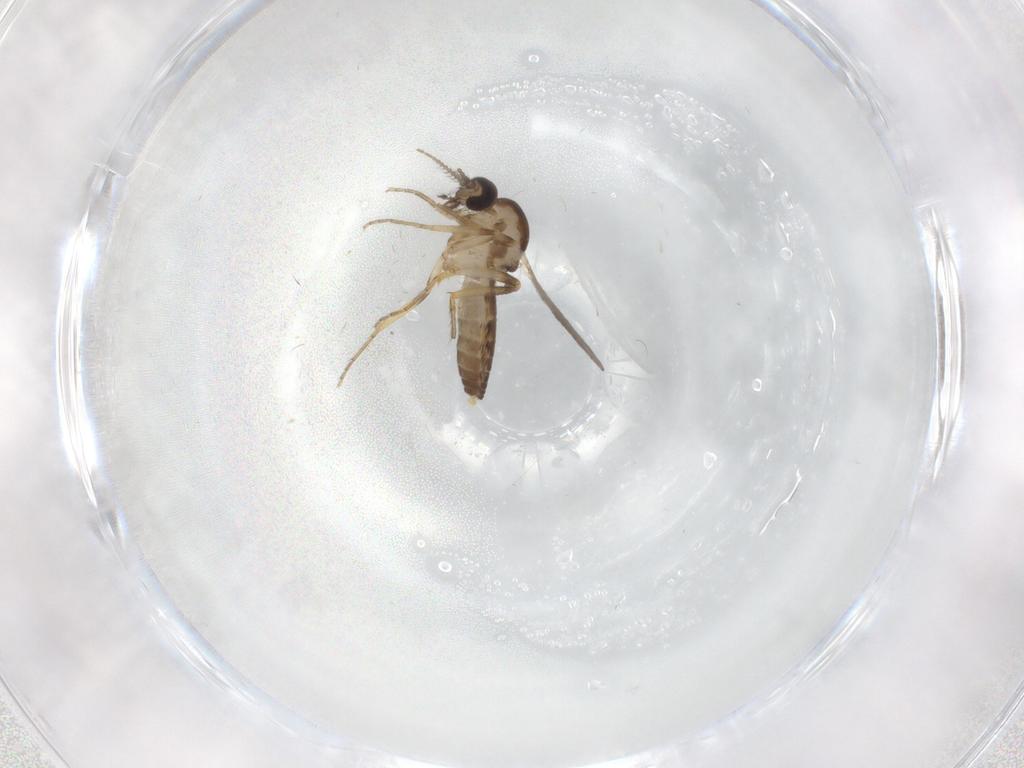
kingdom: Animalia
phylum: Arthropoda
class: Insecta
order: Diptera
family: Ceratopogonidae
